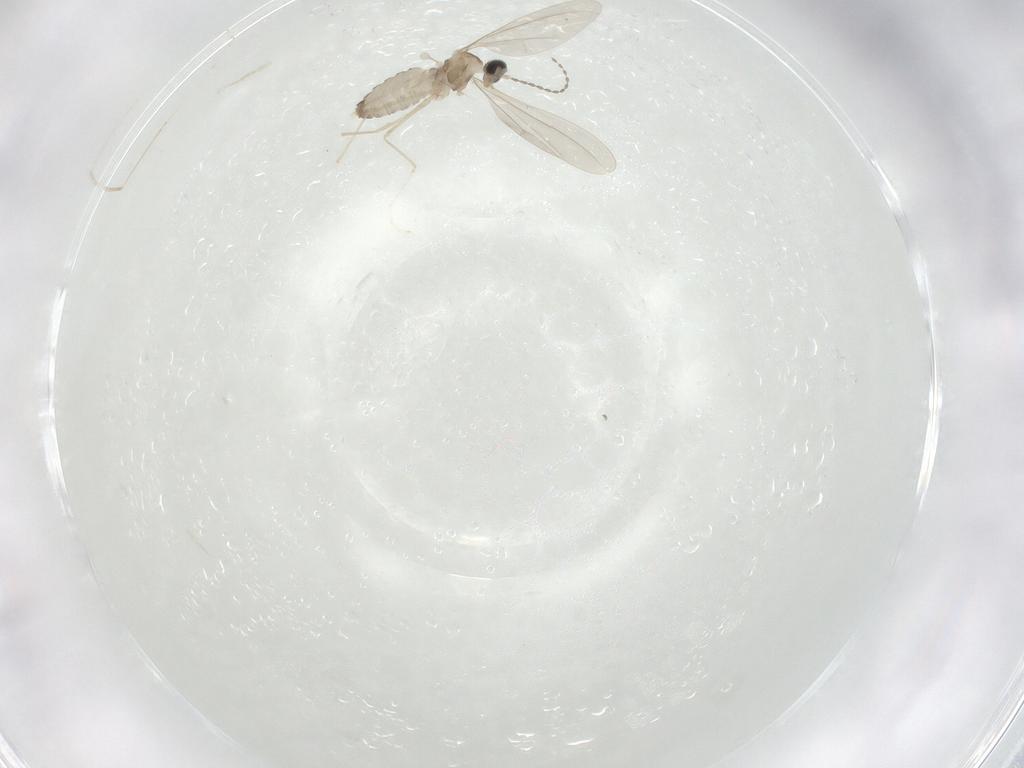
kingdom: Animalia
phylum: Arthropoda
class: Insecta
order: Diptera
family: Cecidomyiidae
